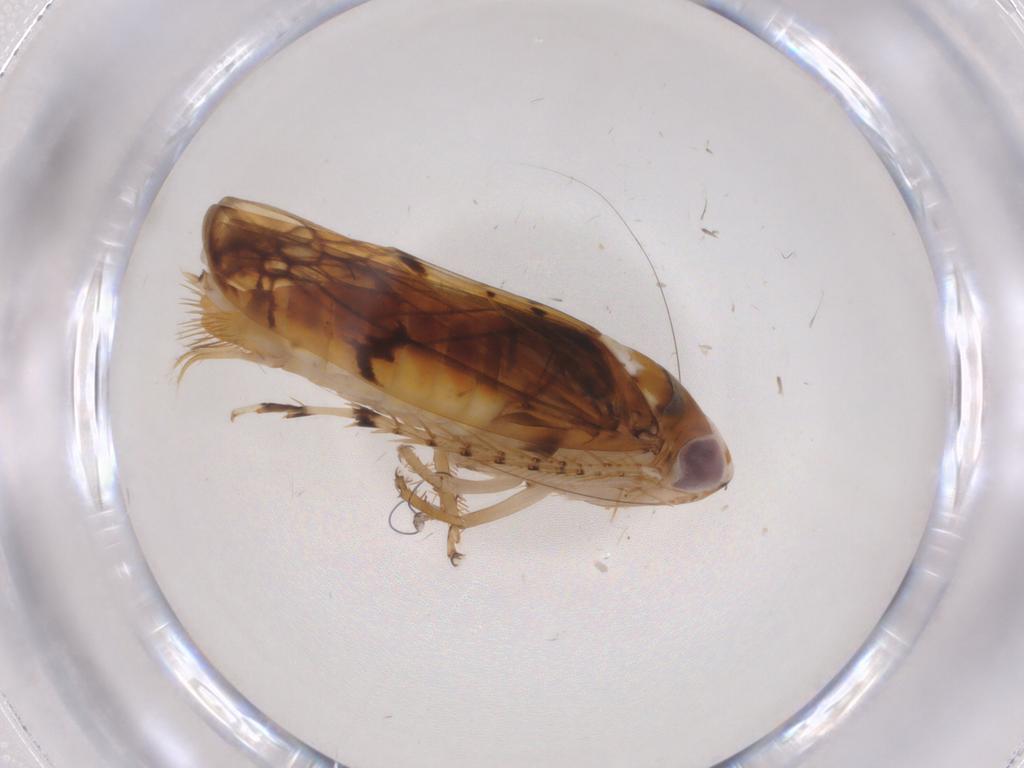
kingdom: Animalia
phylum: Arthropoda
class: Insecta
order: Hemiptera
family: Cicadellidae
